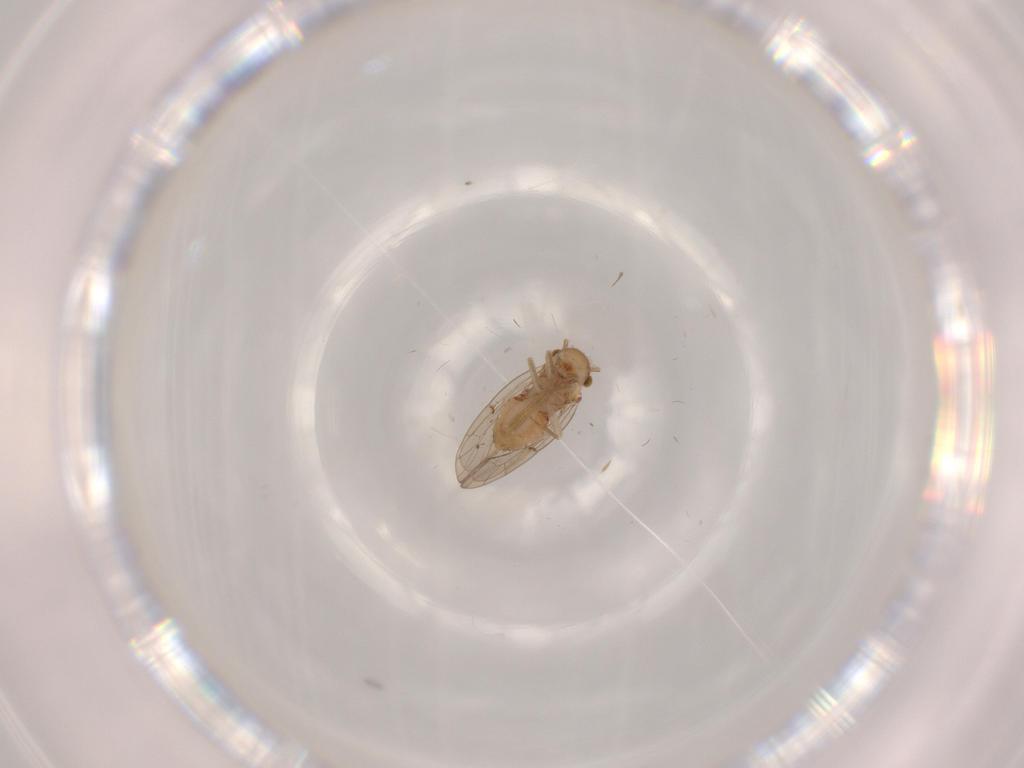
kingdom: Animalia
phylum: Arthropoda
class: Insecta
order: Psocodea
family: Ectopsocidae
